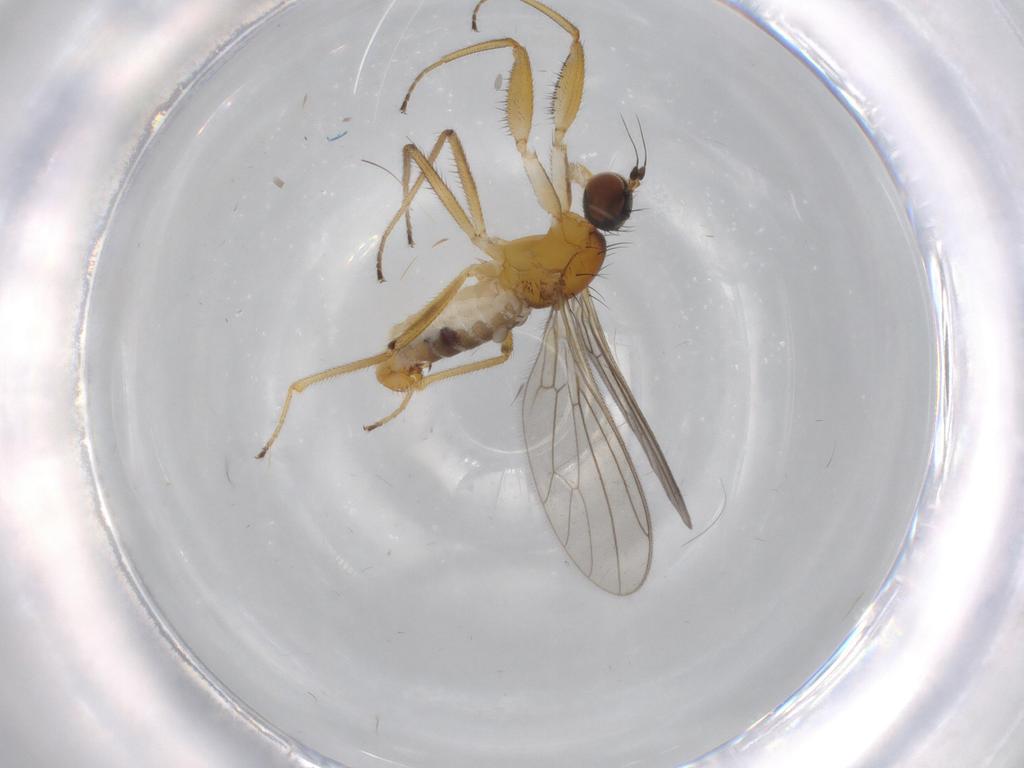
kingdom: Animalia
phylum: Arthropoda
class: Insecta
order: Diptera
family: Empididae
